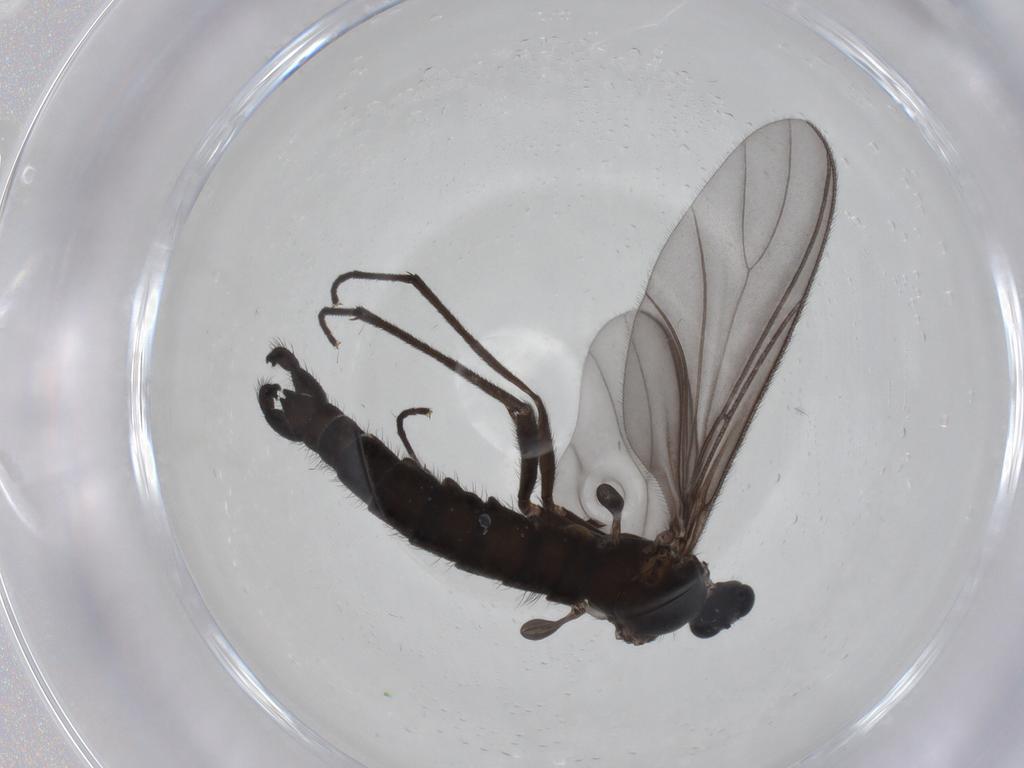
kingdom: Animalia
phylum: Arthropoda
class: Insecta
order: Diptera
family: Sciaridae
